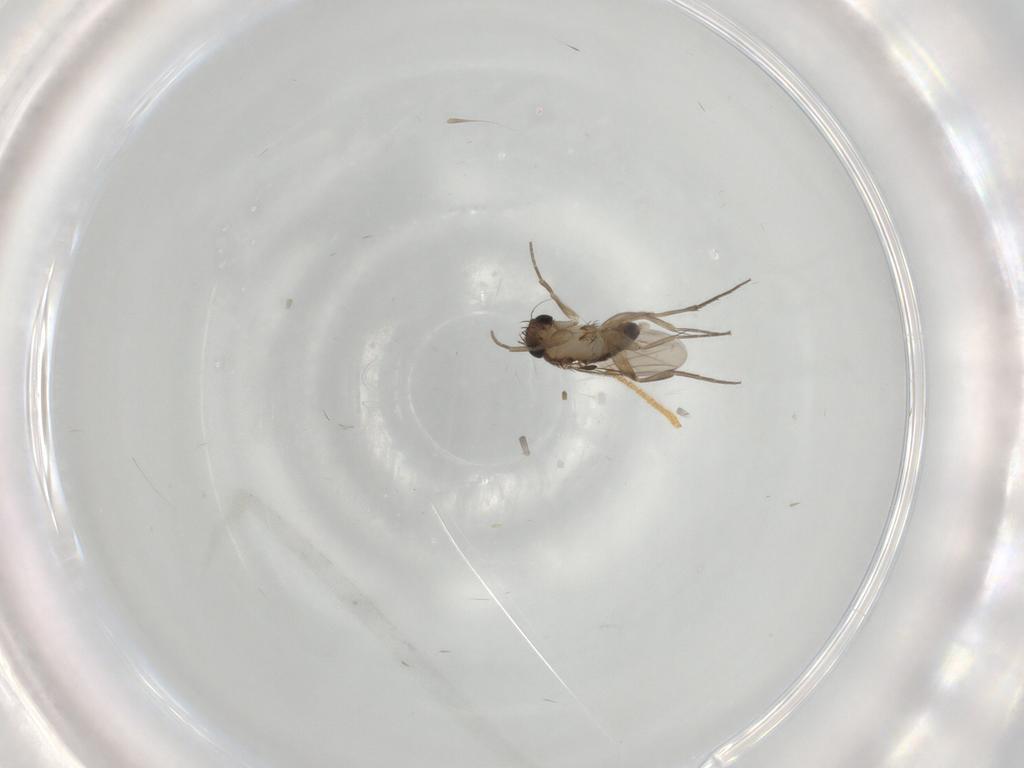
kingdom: Animalia
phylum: Arthropoda
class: Insecta
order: Diptera
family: Phoridae
